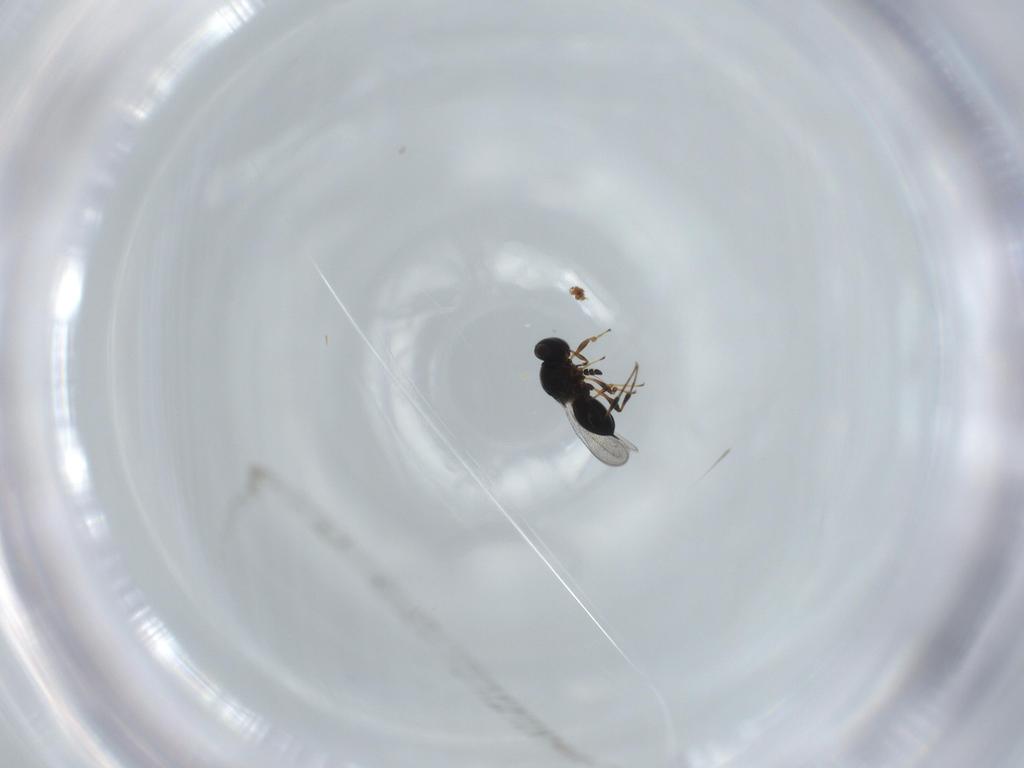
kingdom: Animalia
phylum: Arthropoda
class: Insecta
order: Hymenoptera
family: Platygastridae
